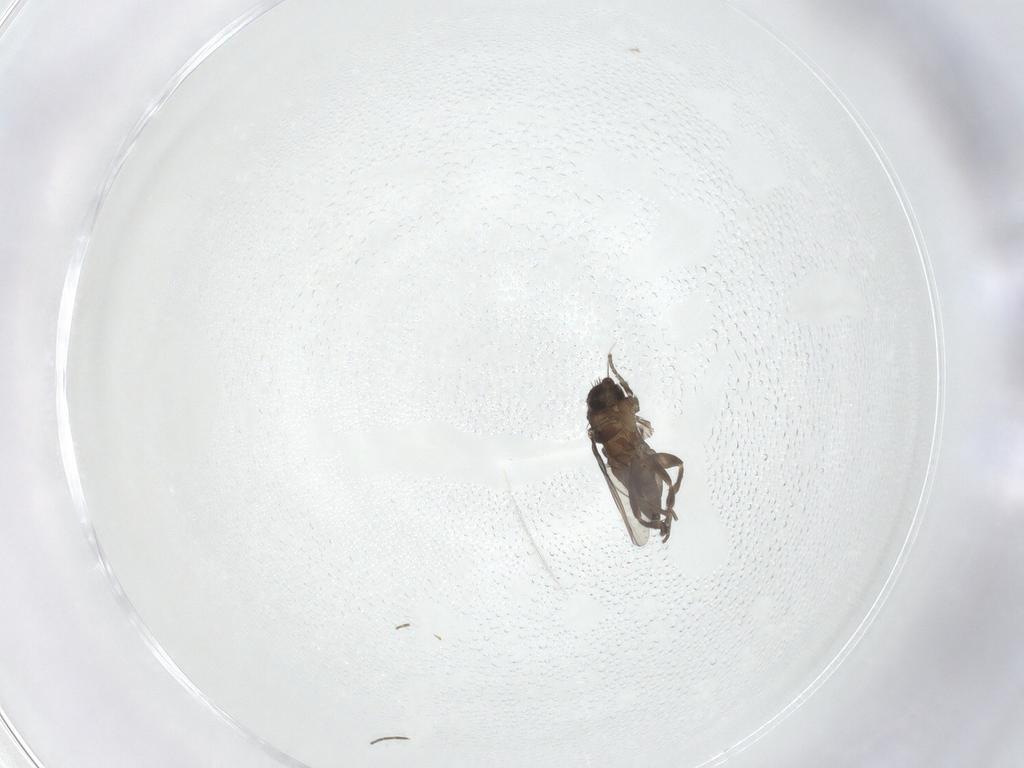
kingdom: Animalia
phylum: Arthropoda
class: Insecta
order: Diptera
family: Phoridae
